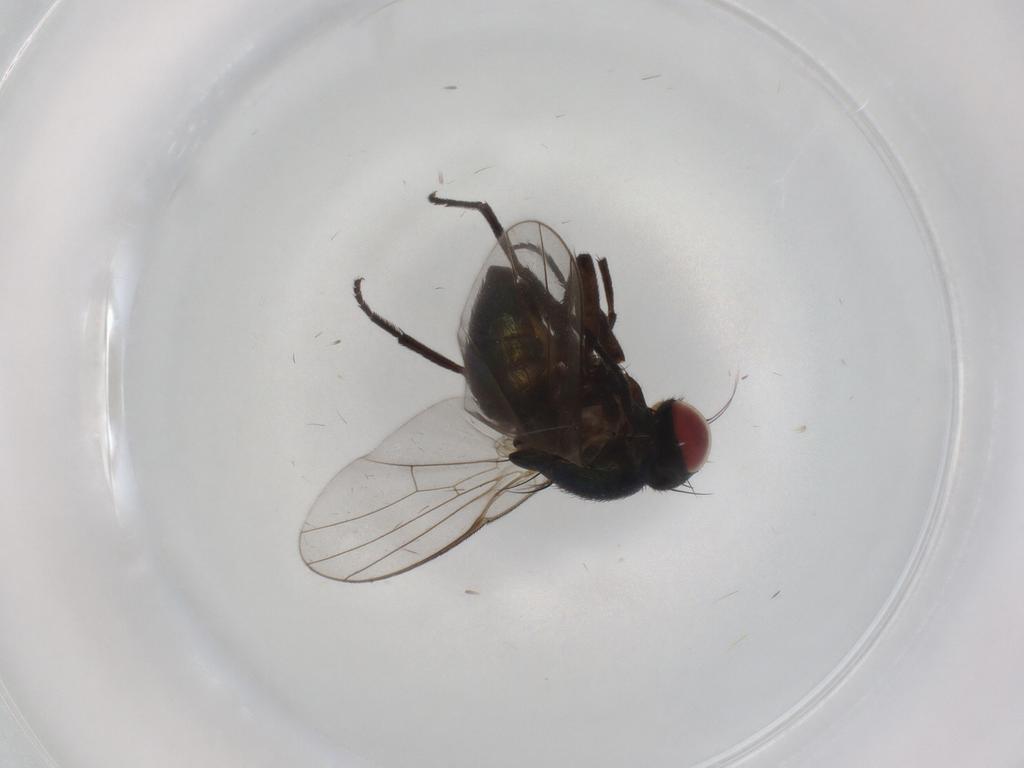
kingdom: Animalia
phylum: Arthropoda
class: Insecta
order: Diptera
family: Agromyzidae
